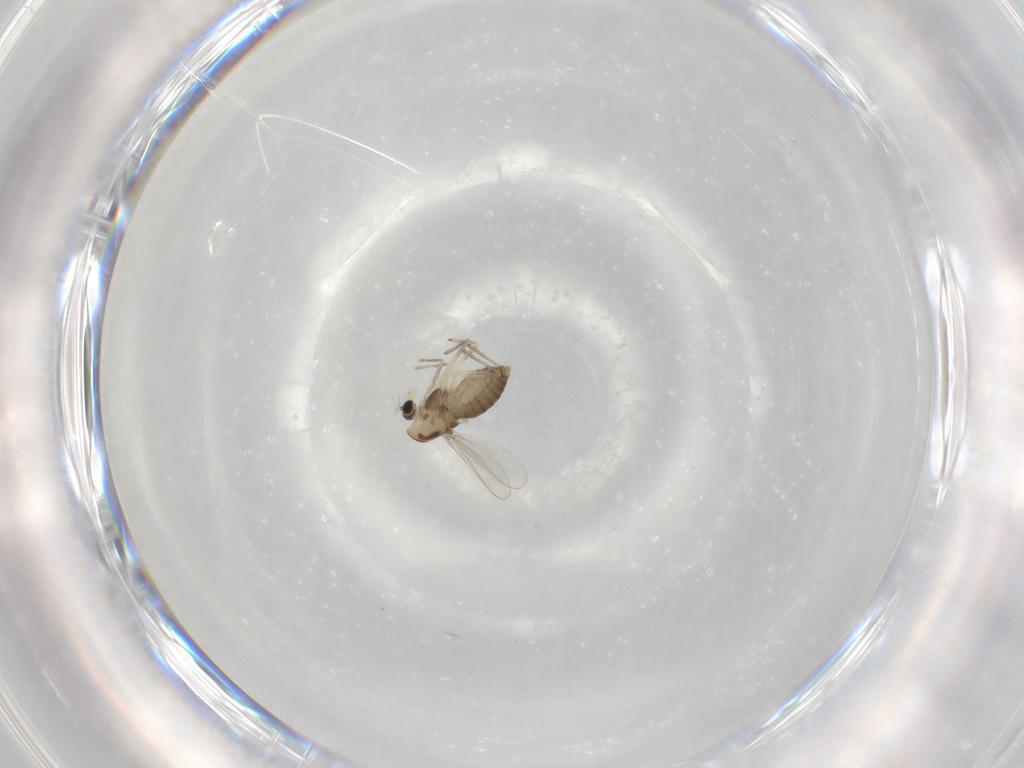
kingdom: Animalia
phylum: Arthropoda
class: Insecta
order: Diptera
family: Chironomidae
